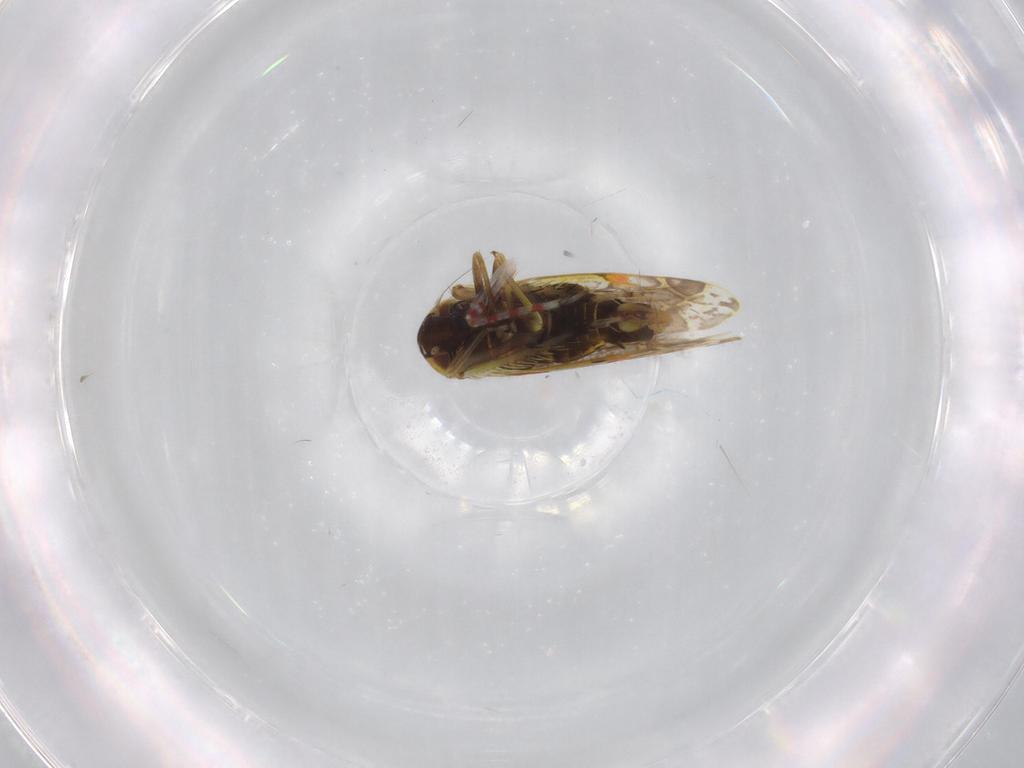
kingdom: Animalia
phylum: Arthropoda
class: Insecta
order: Hemiptera
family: Cicadellidae
